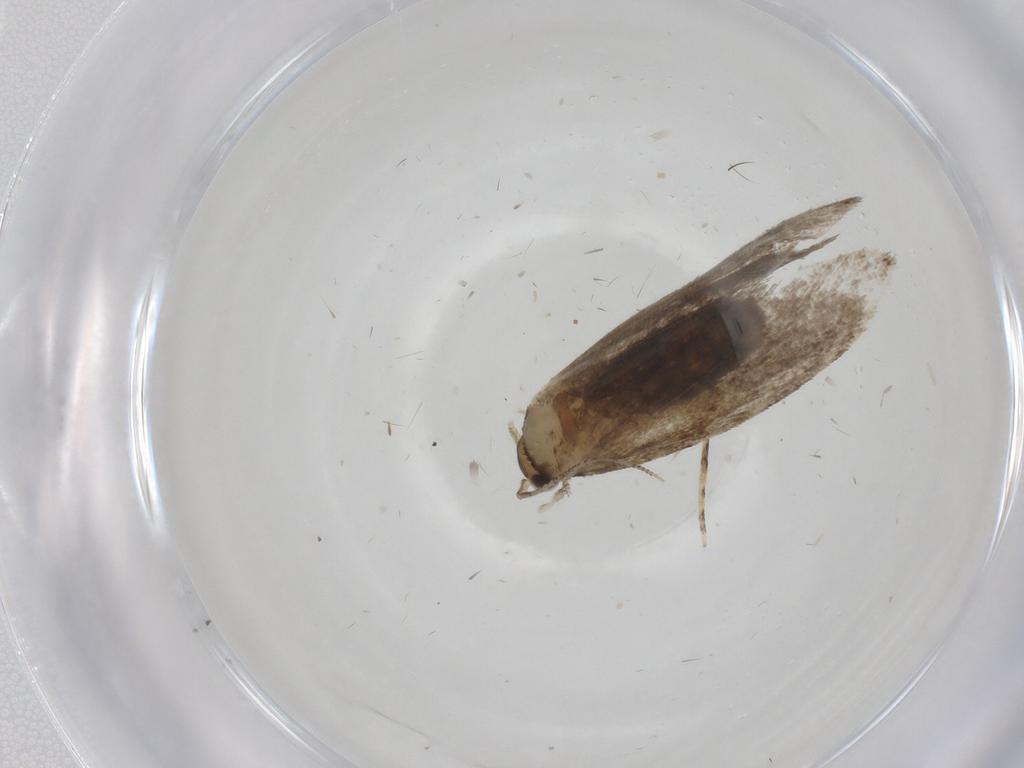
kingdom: Animalia
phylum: Arthropoda
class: Insecta
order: Lepidoptera
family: Tineidae
